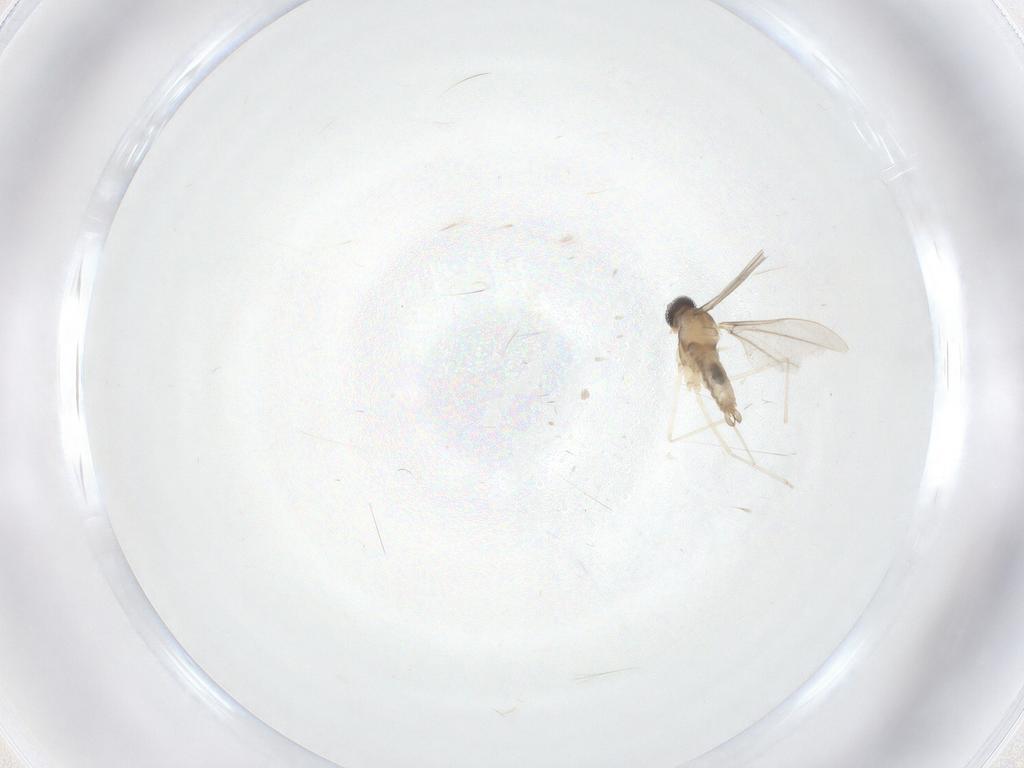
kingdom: Animalia
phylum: Arthropoda
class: Insecta
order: Diptera
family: Cecidomyiidae
